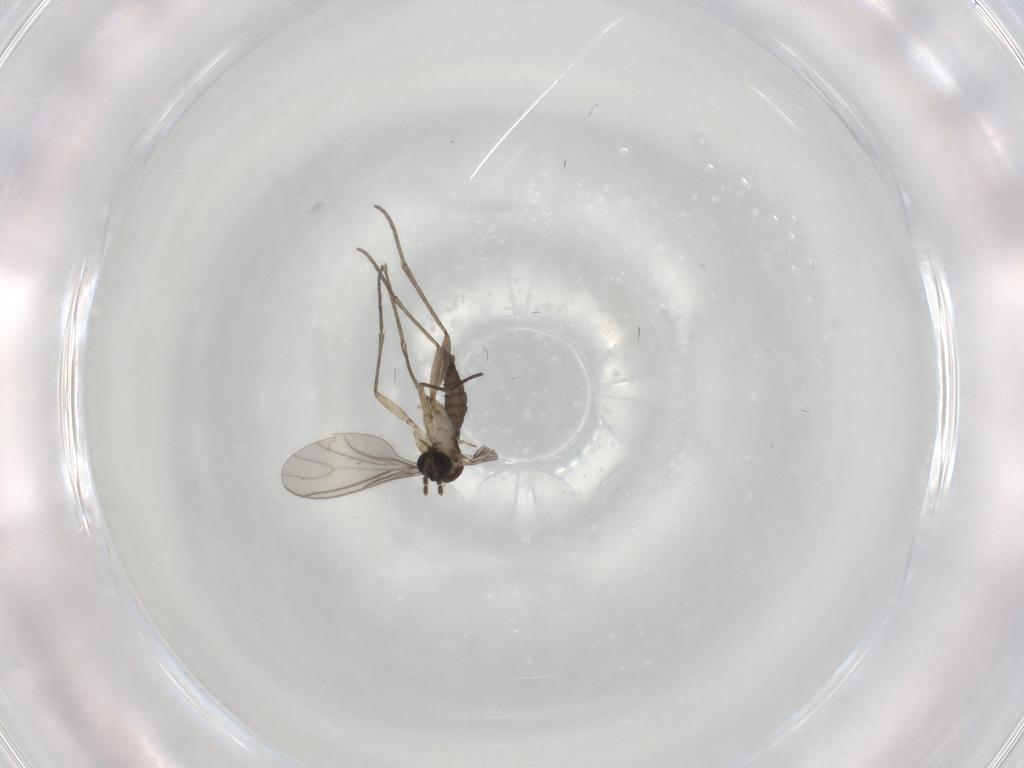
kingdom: Animalia
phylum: Arthropoda
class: Insecta
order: Diptera
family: Sciaridae
